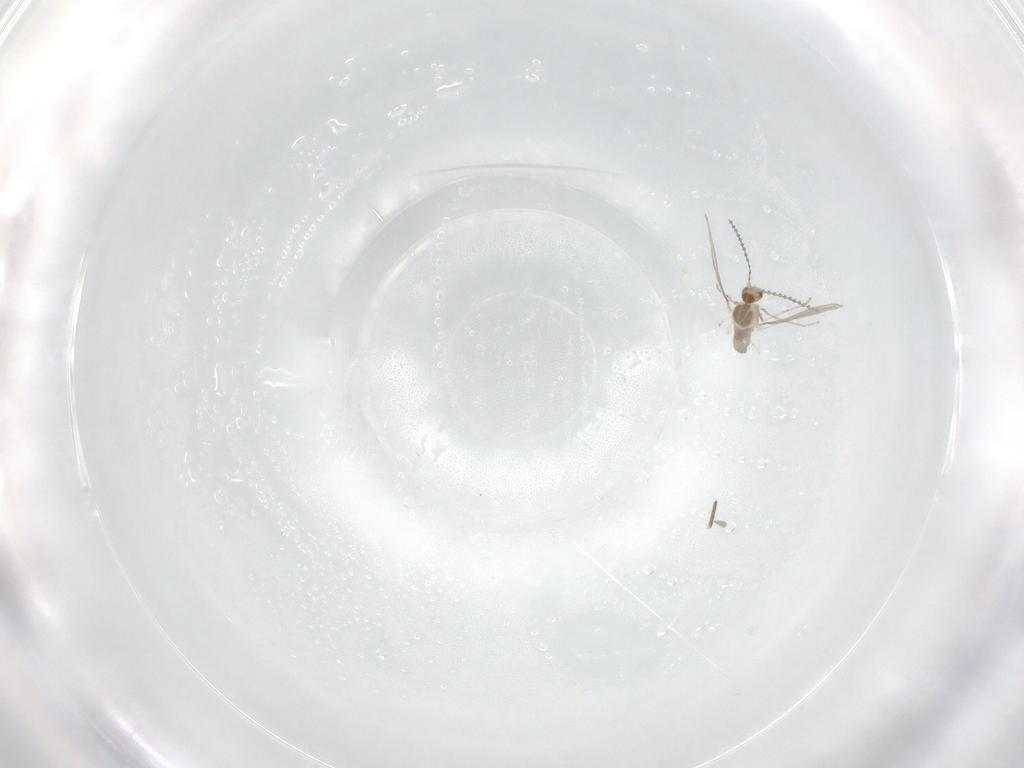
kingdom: Animalia
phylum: Arthropoda
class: Insecta
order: Diptera
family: Cecidomyiidae
